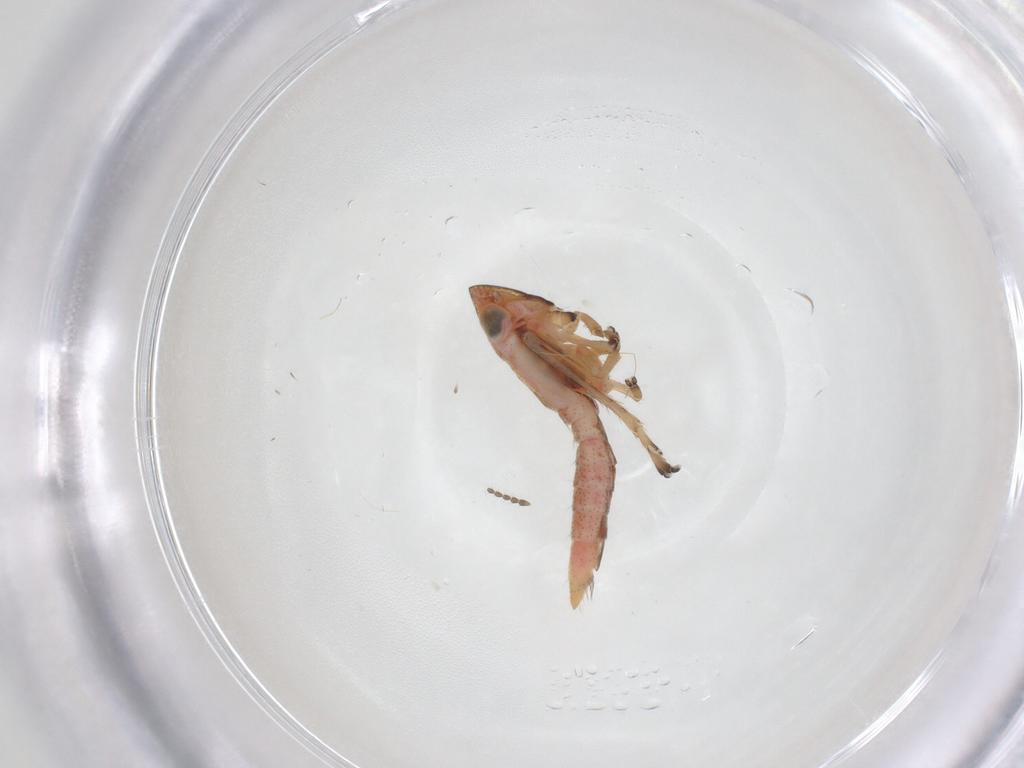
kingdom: Animalia
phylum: Arthropoda
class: Insecta
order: Hemiptera
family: Cicadellidae
